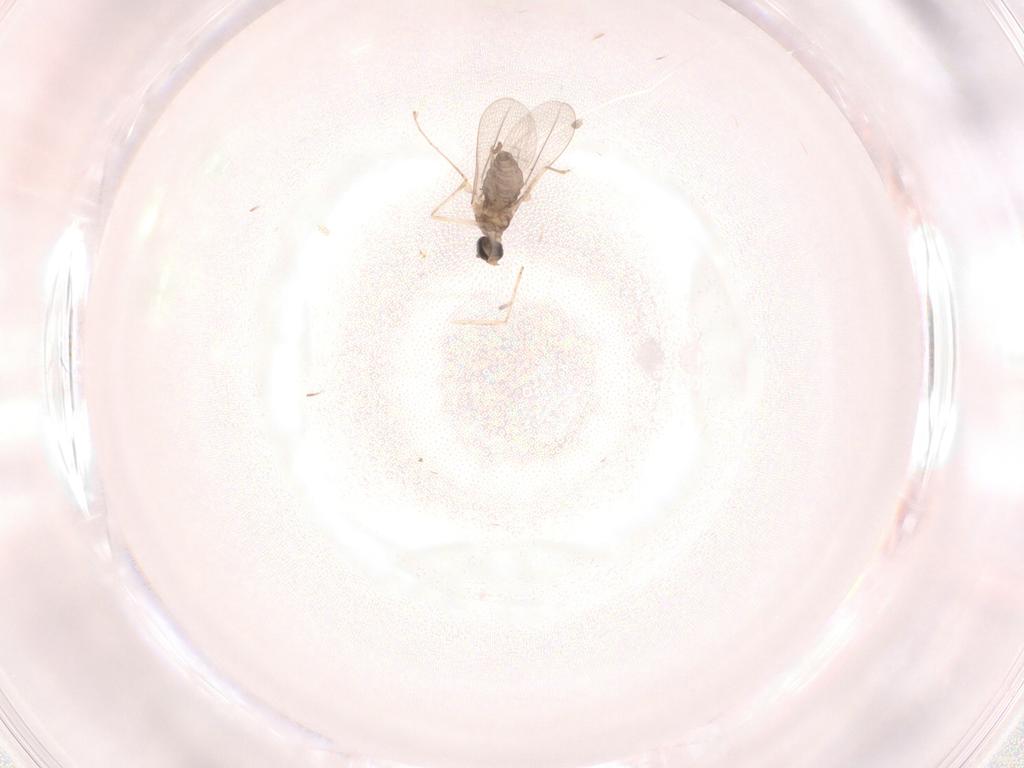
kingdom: Animalia
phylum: Arthropoda
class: Insecta
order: Diptera
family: Cecidomyiidae
